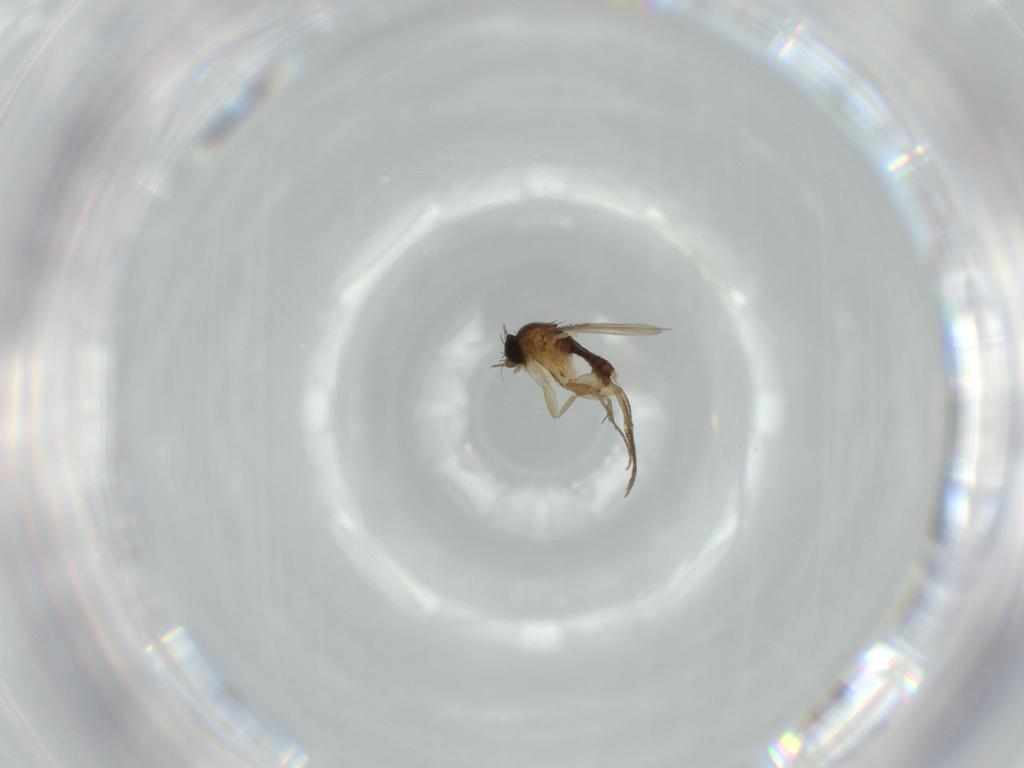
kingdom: Animalia
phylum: Arthropoda
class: Insecta
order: Diptera
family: Phoridae
